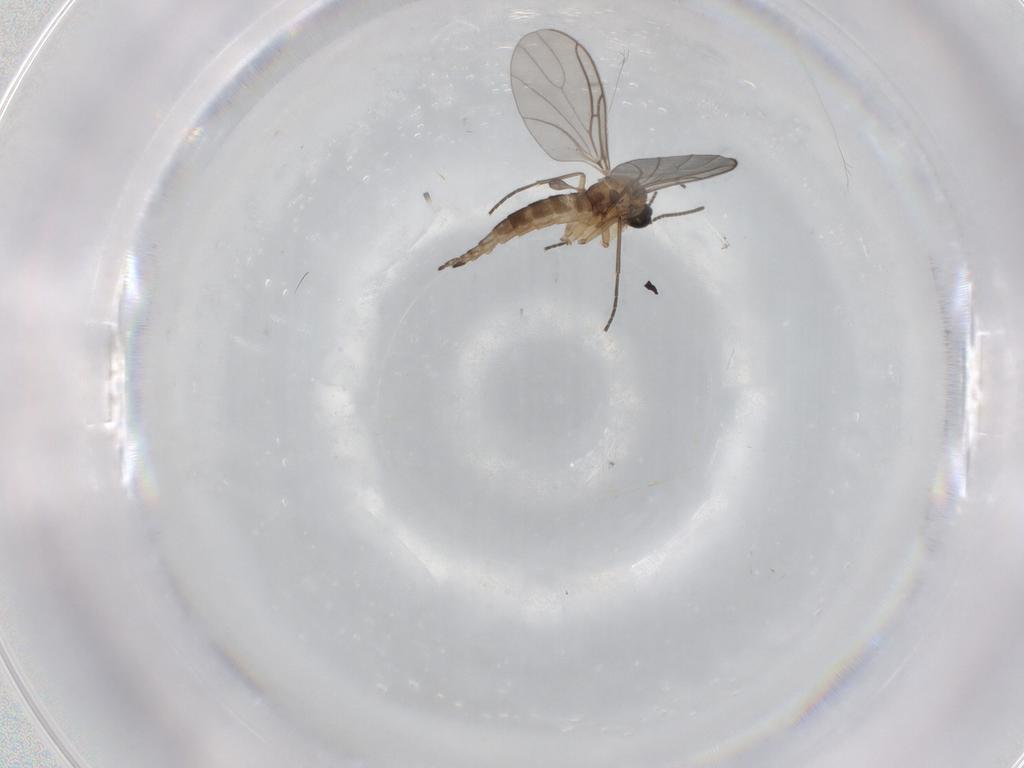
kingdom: Animalia
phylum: Arthropoda
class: Insecta
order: Diptera
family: Sciaridae
